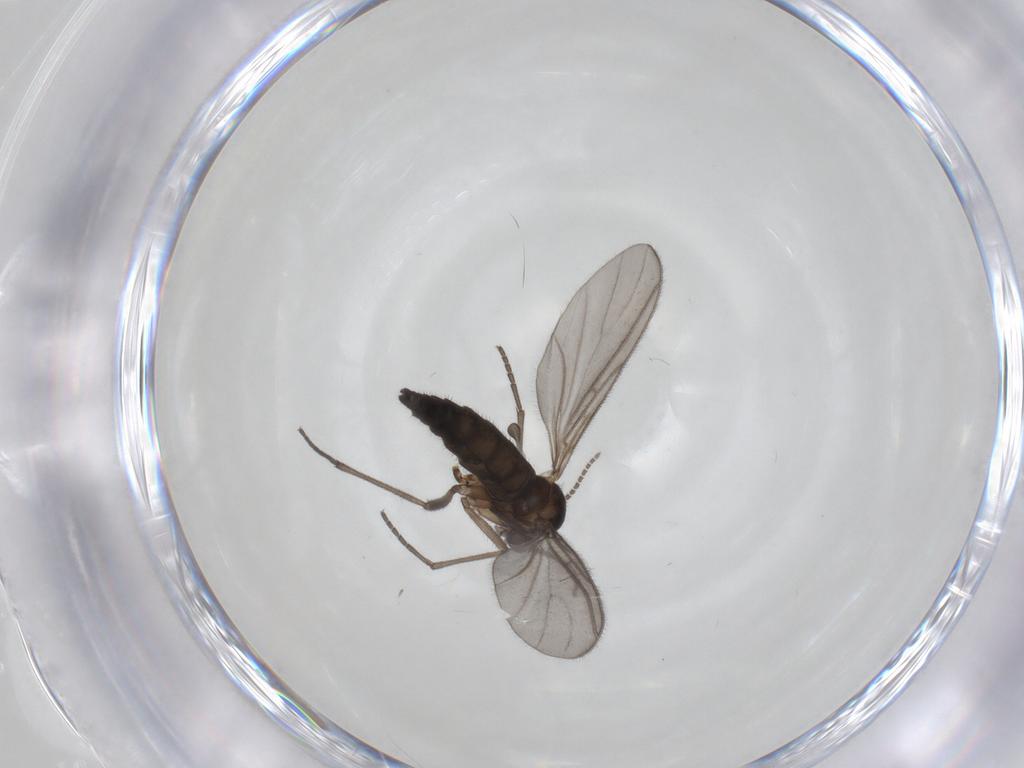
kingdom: Animalia
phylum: Arthropoda
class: Insecta
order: Diptera
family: Sciaridae
